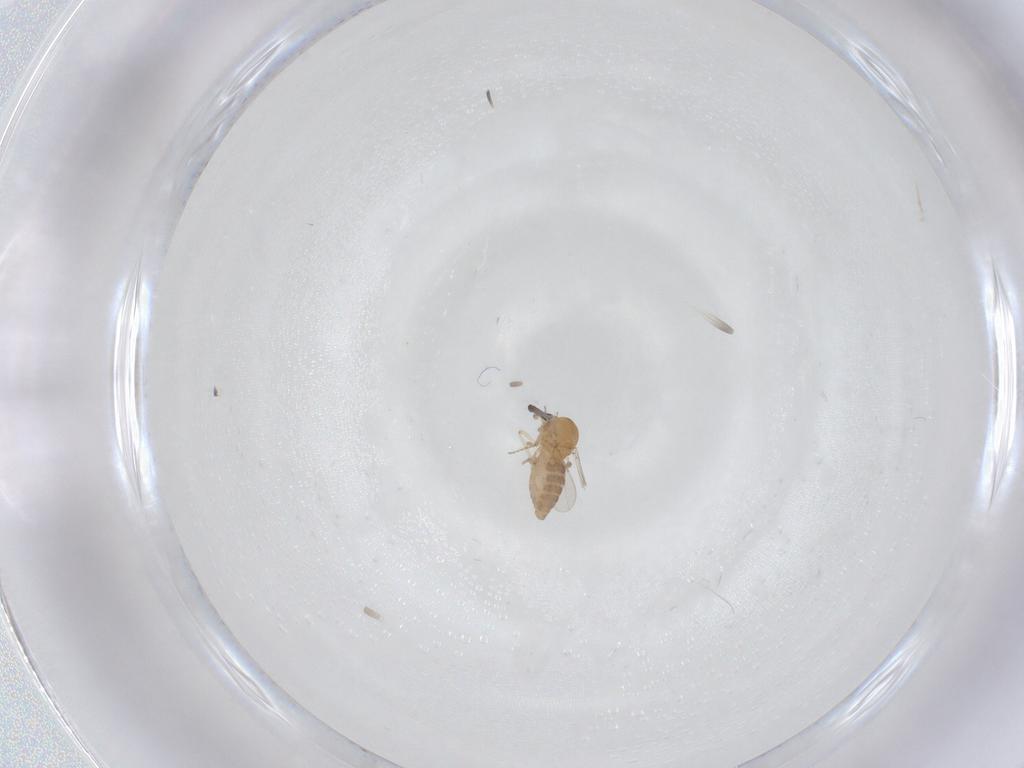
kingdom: Animalia
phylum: Arthropoda
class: Insecta
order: Diptera
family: Ceratopogonidae
